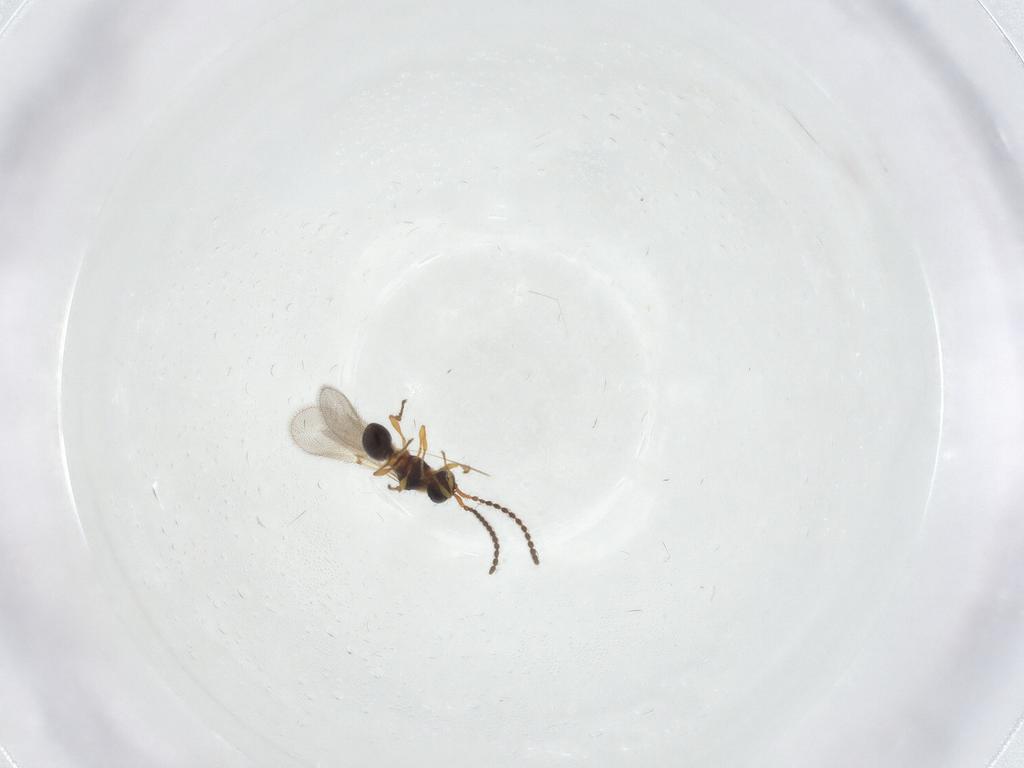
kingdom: Animalia
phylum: Arthropoda
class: Insecta
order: Hymenoptera
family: Diapriidae
